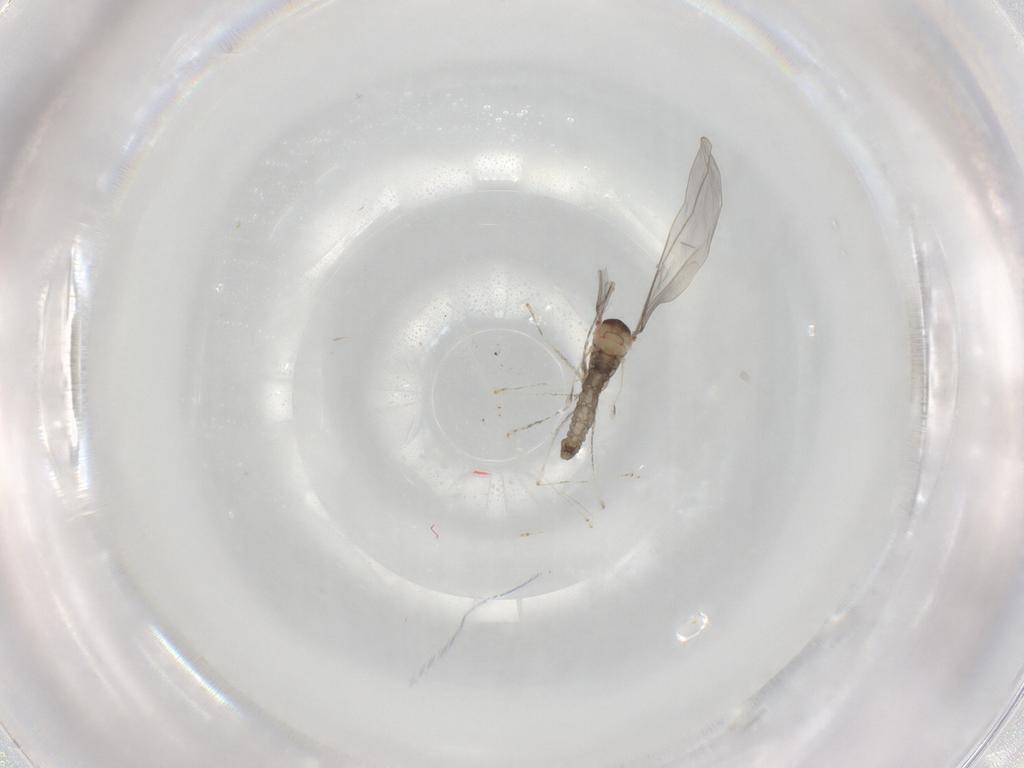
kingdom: Animalia
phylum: Arthropoda
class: Insecta
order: Diptera
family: Cecidomyiidae
